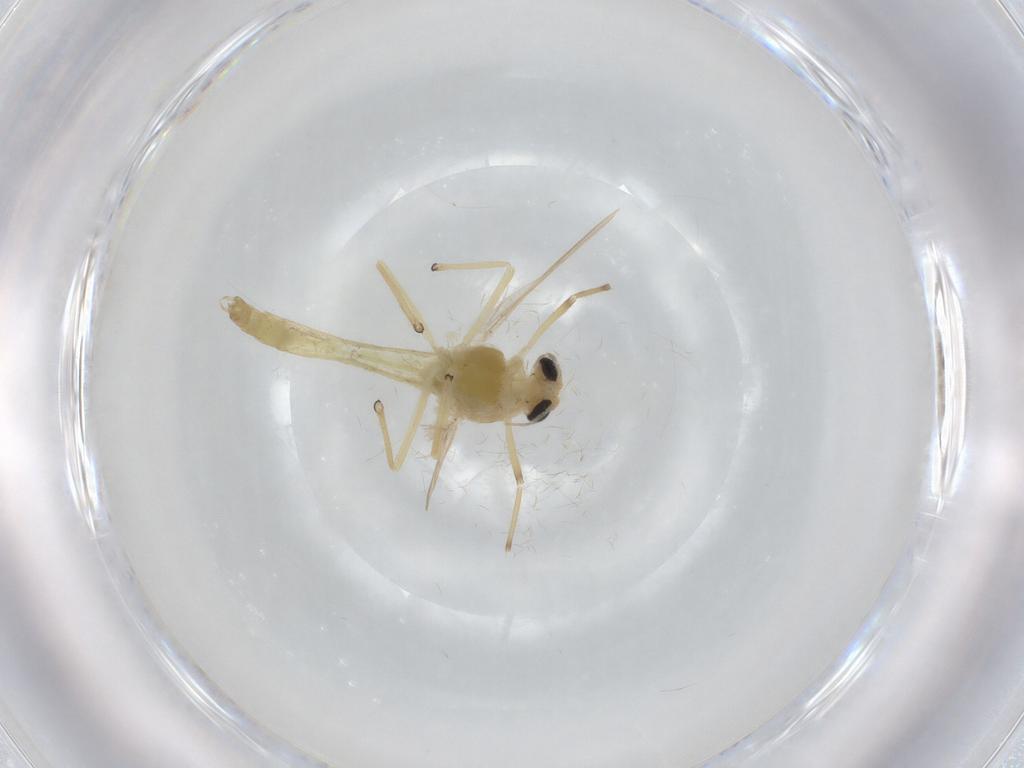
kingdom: Animalia
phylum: Arthropoda
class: Insecta
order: Diptera
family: Chironomidae
